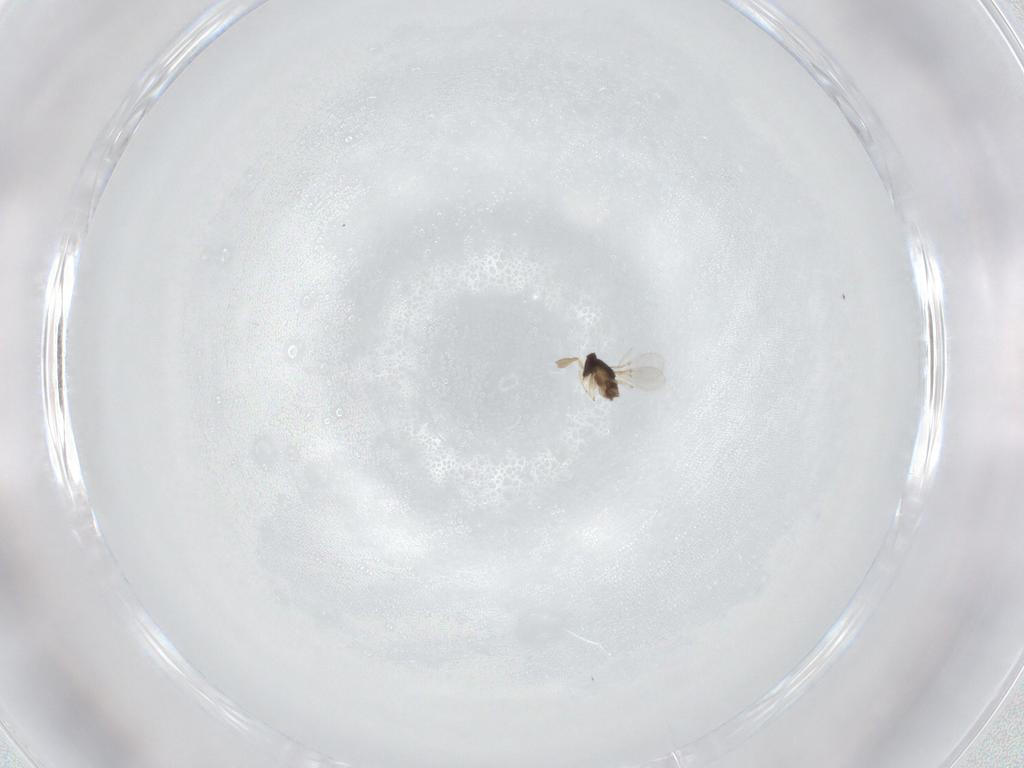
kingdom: Animalia
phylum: Arthropoda
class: Insecta
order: Hymenoptera
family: Encyrtidae
